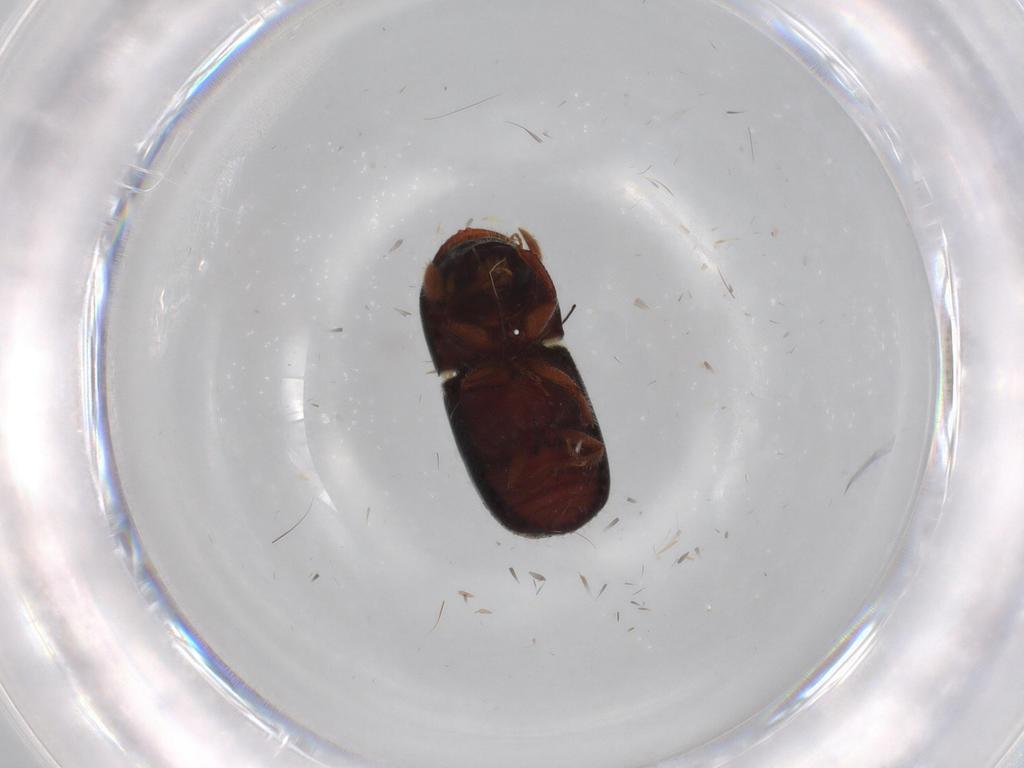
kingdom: Animalia
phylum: Arthropoda
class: Insecta
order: Coleoptera
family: Curculionidae
